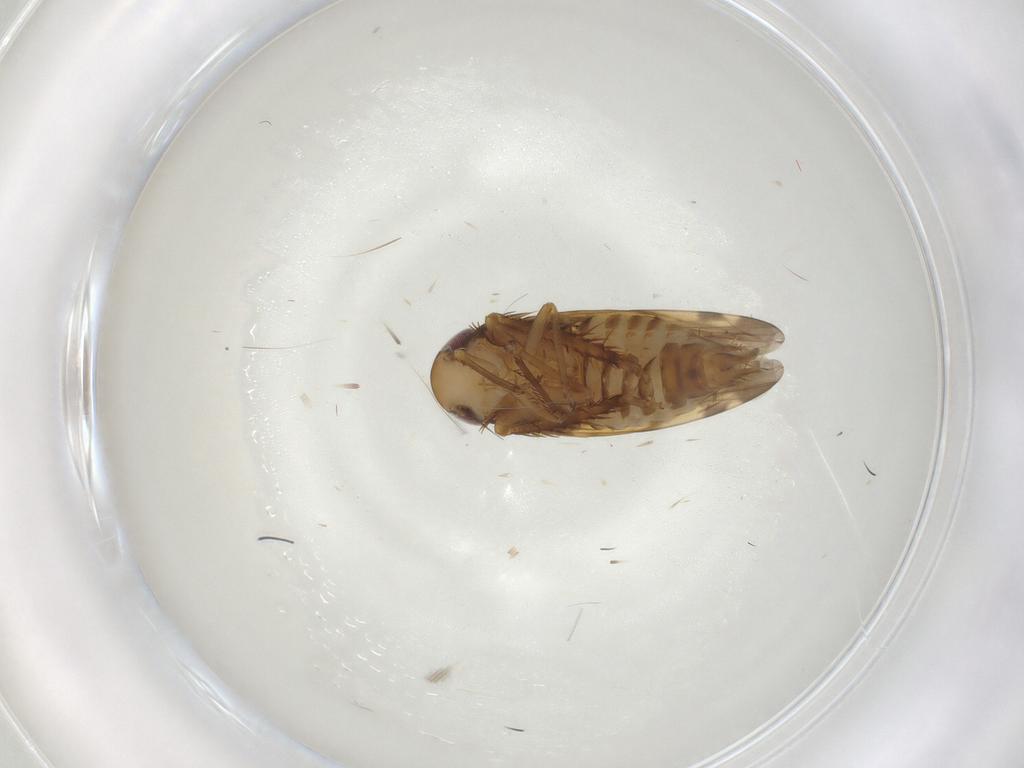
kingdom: Animalia
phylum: Arthropoda
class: Insecta
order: Hemiptera
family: Cicadellidae
